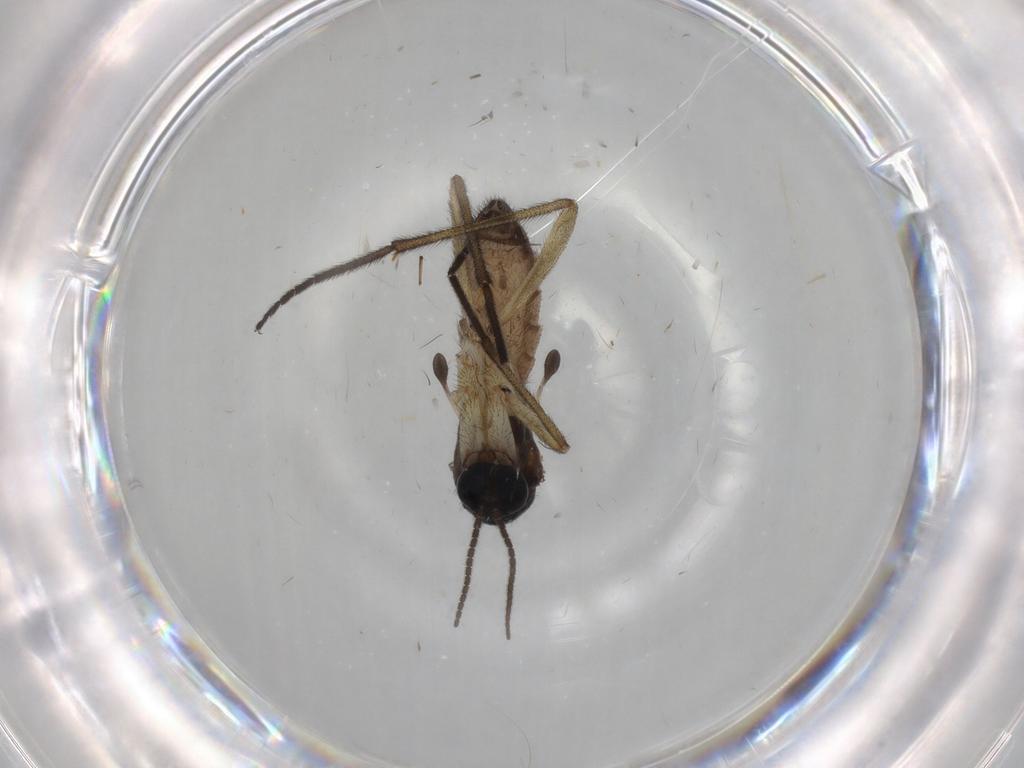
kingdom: Animalia
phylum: Arthropoda
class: Insecta
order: Diptera
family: Sciaridae
